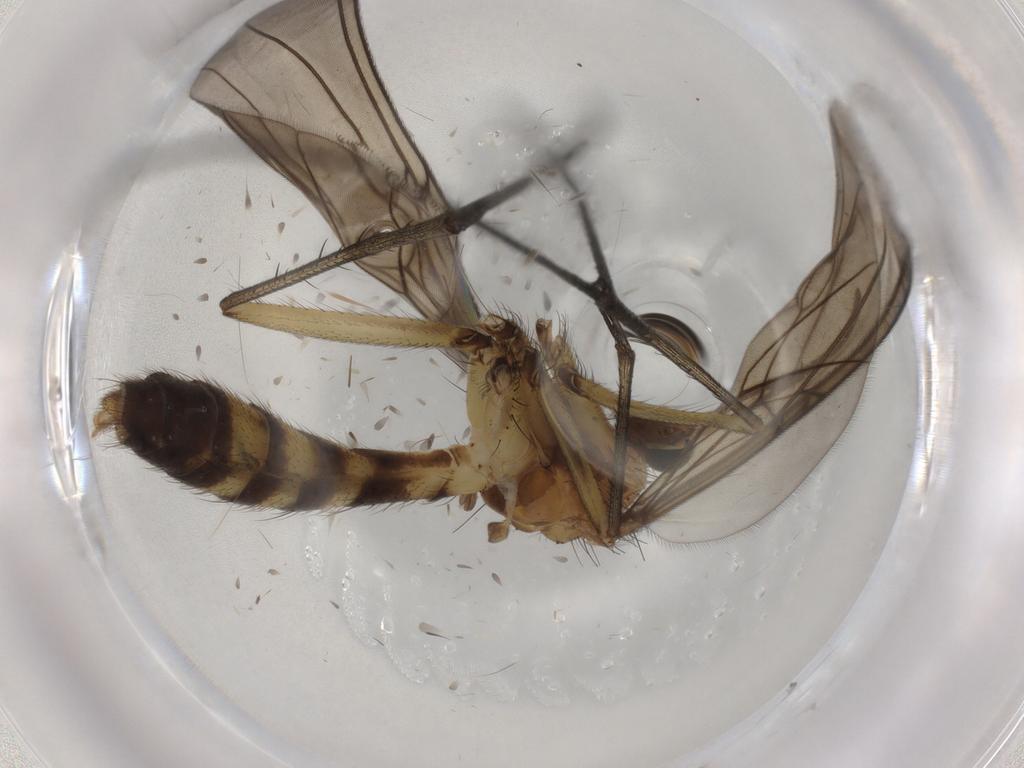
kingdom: Animalia
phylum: Arthropoda
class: Insecta
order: Diptera
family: Mycetophilidae
